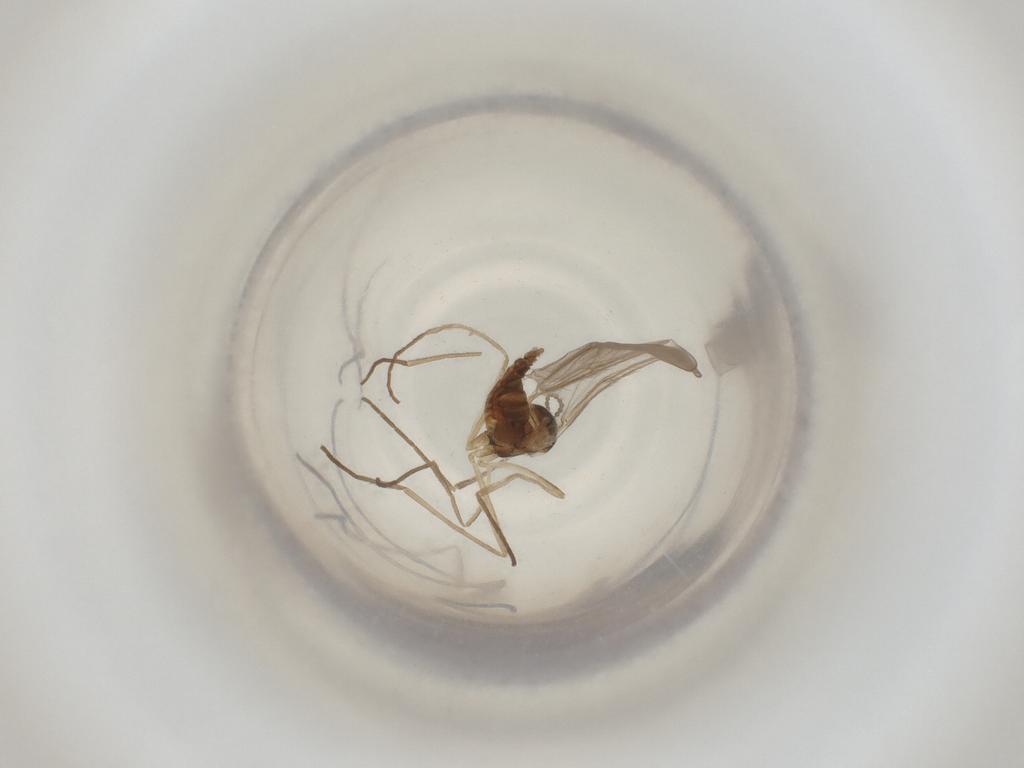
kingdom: Animalia
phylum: Arthropoda
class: Insecta
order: Diptera
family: Cecidomyiidae
